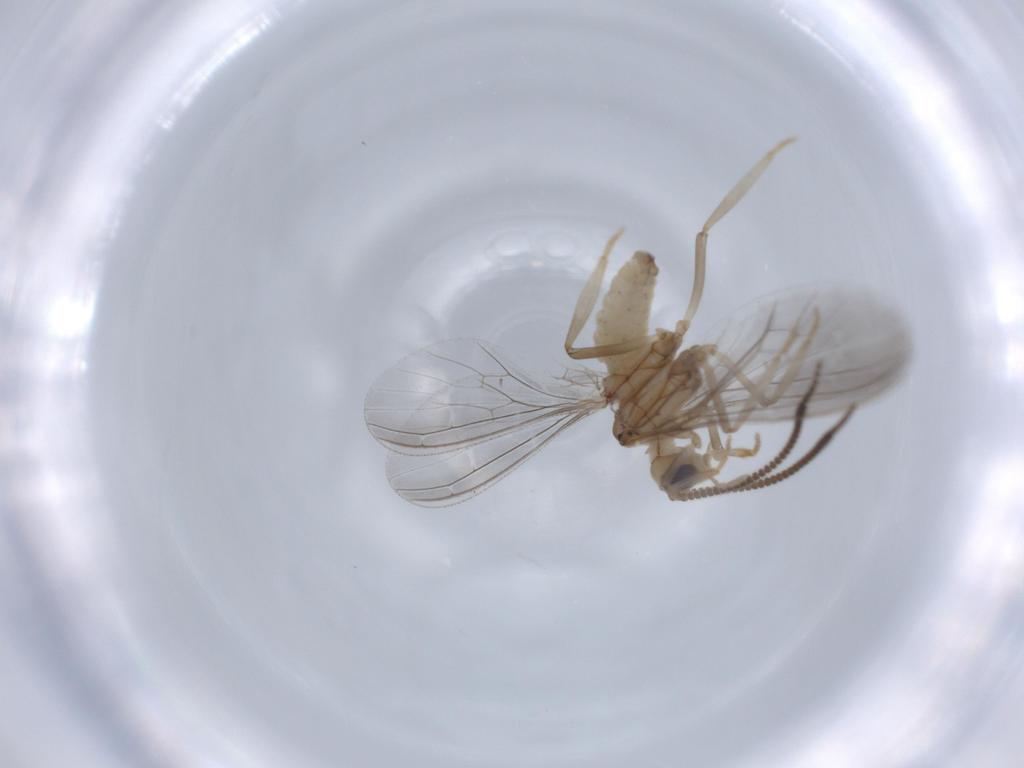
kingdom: Animalia
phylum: Arthropoda
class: Insecta
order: Neuroptera
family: Coniopterygidae
